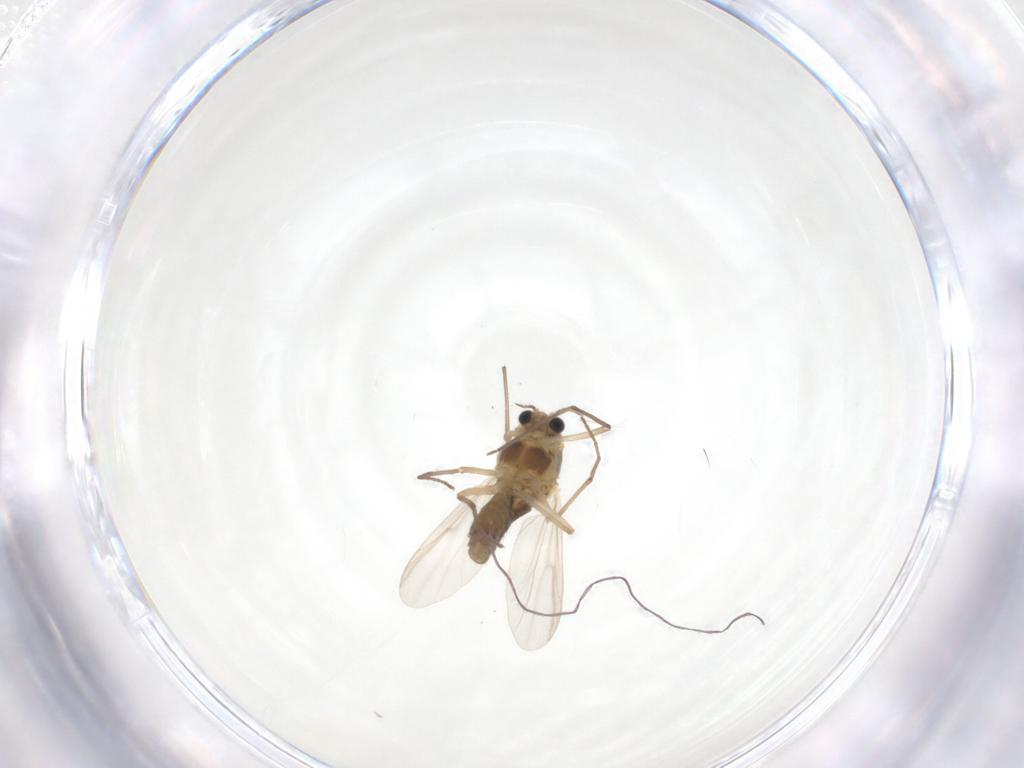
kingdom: Animalia
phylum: Arthropoda
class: Insecta
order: Diptera
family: Chironomidae
